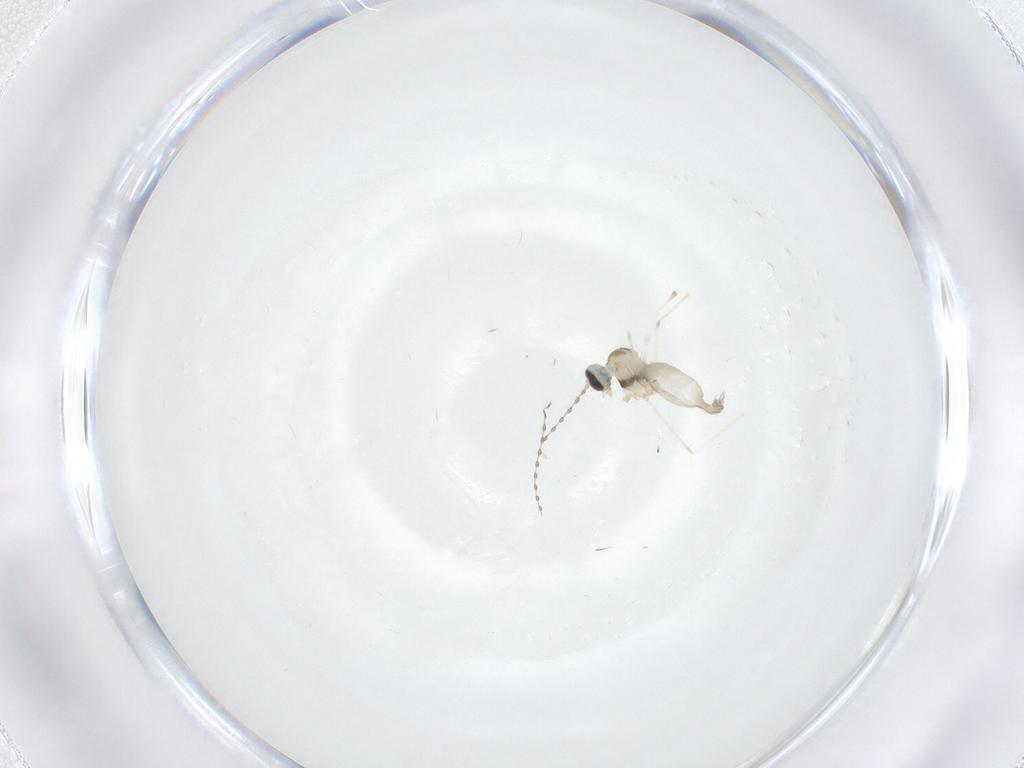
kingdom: Animalia
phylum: Arthropoda
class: Insecta
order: Diptera
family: Cecidomyiidae
